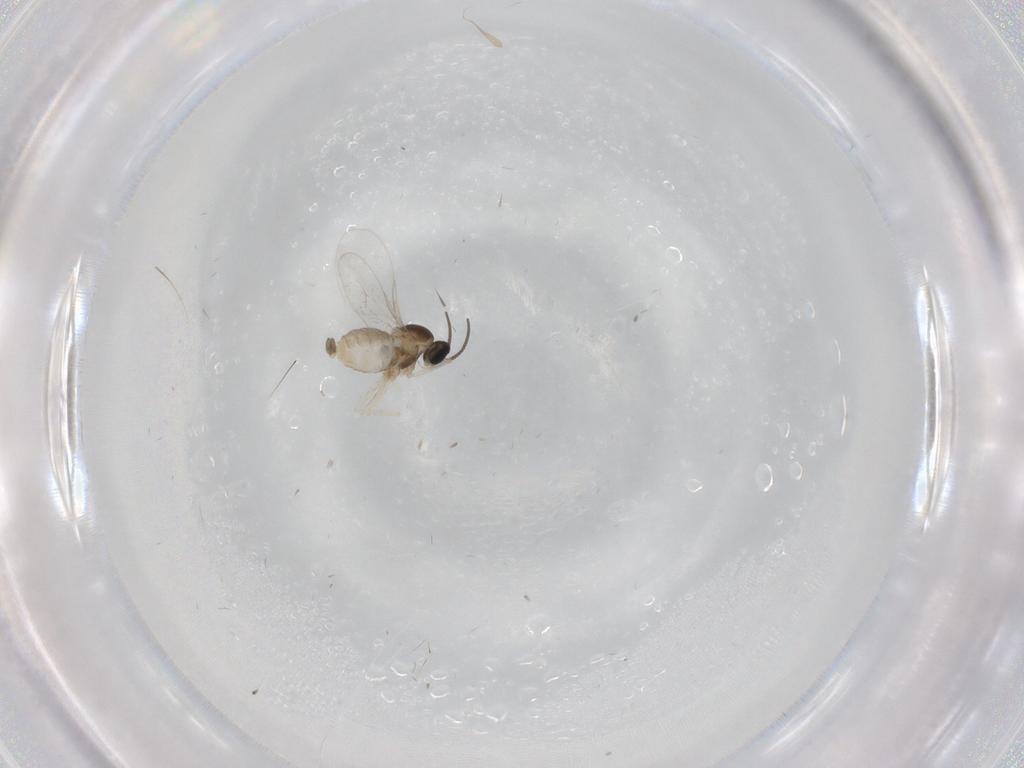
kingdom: Animalia
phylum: Arthropoda
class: Insecta
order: Diptera
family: Cecidomyiidae
